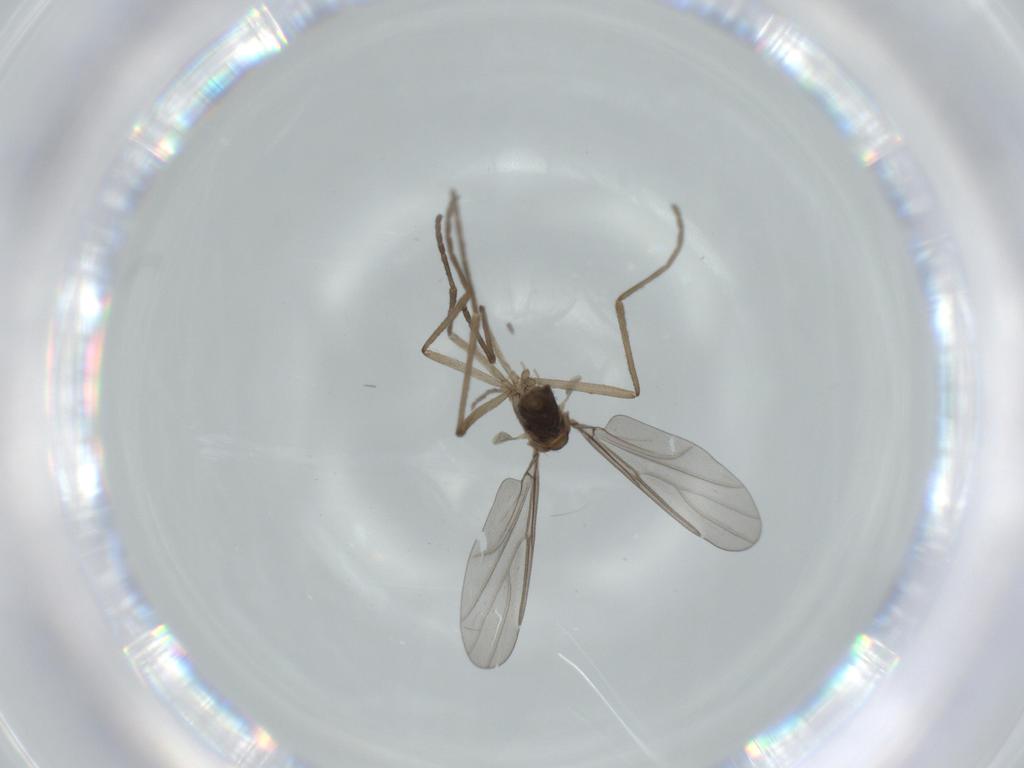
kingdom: Animalia
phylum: Arthropoda
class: Insecta
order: Diptera
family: Cecidomyiidae
